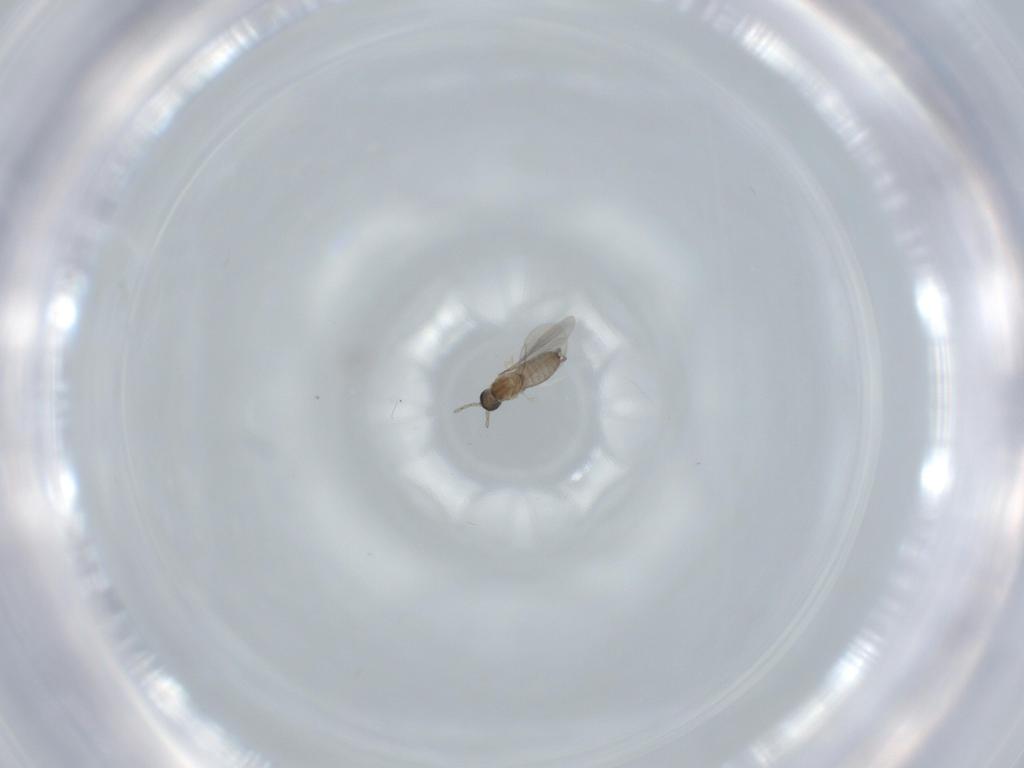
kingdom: Animalia
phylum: Arthropoda
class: Insecta
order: Diptera
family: Cecidomyiidae
